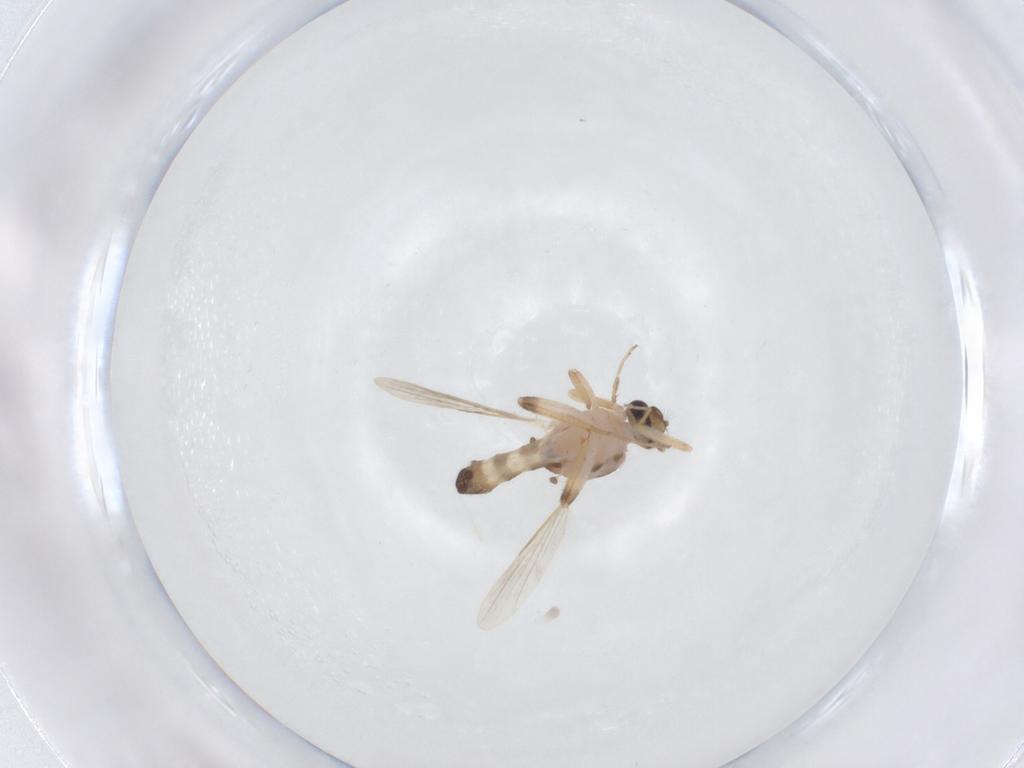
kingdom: Animalia
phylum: Arthropoda
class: Insecta
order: Diptera
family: Ceratopogonidae
